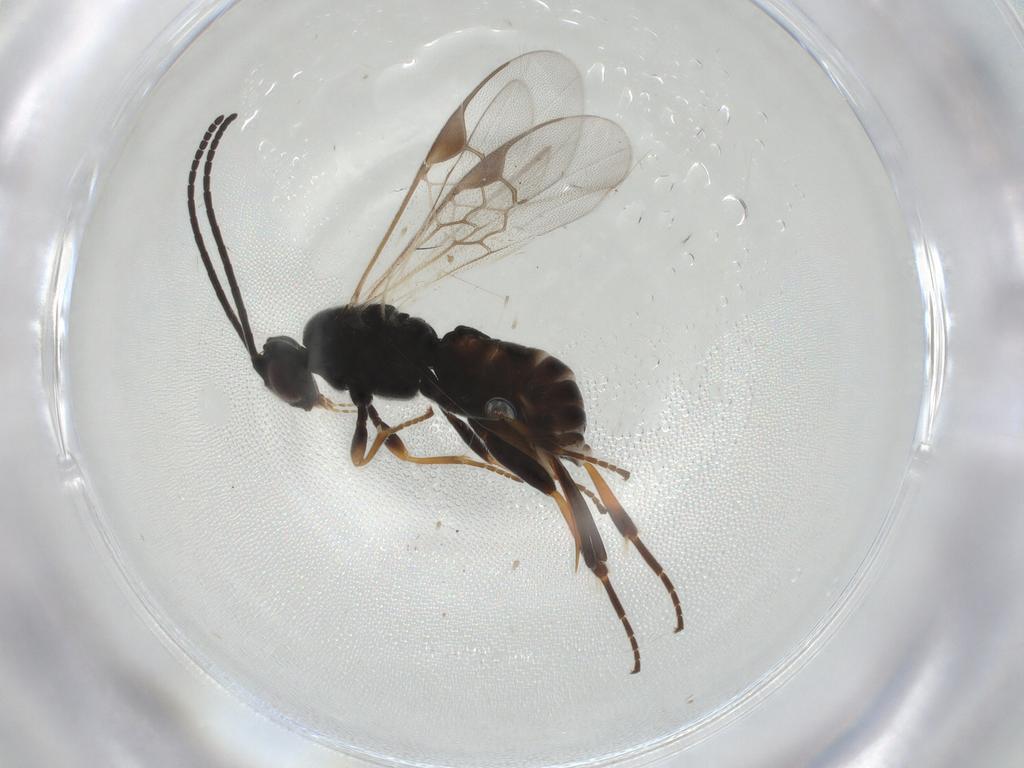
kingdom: Animalia
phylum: Arthropoda
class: Insecta
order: Hymenoptera
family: Braconidae
